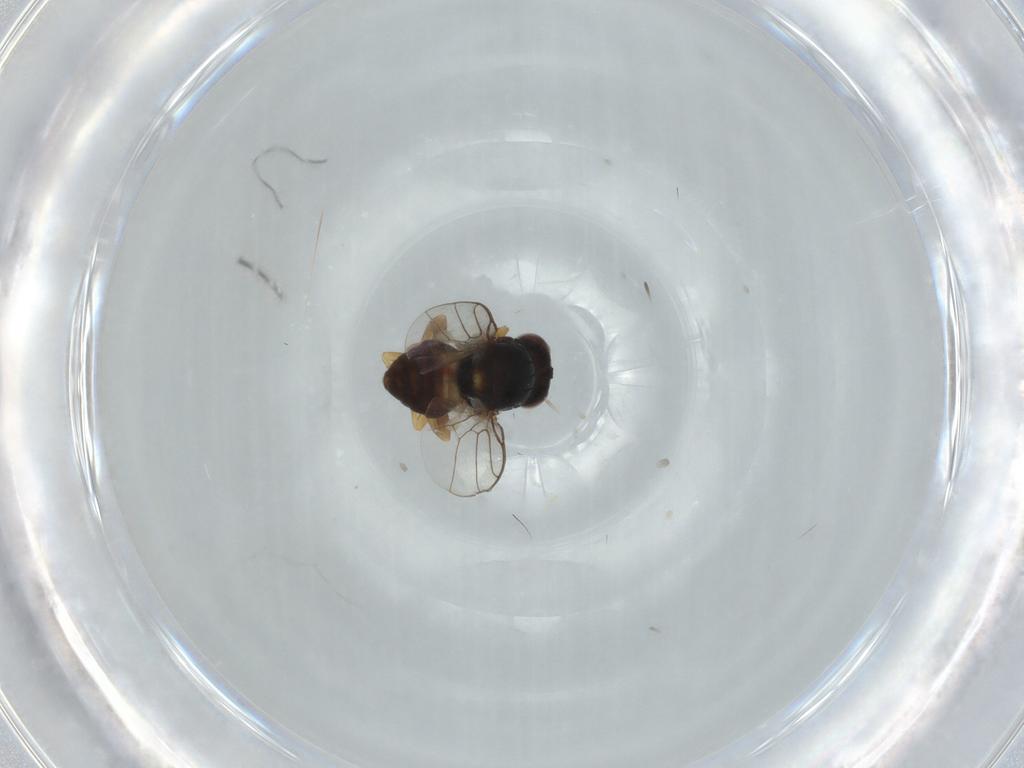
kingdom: Animalia
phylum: Arthropoda
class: Insecta
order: Diptera
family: Chloropidae
